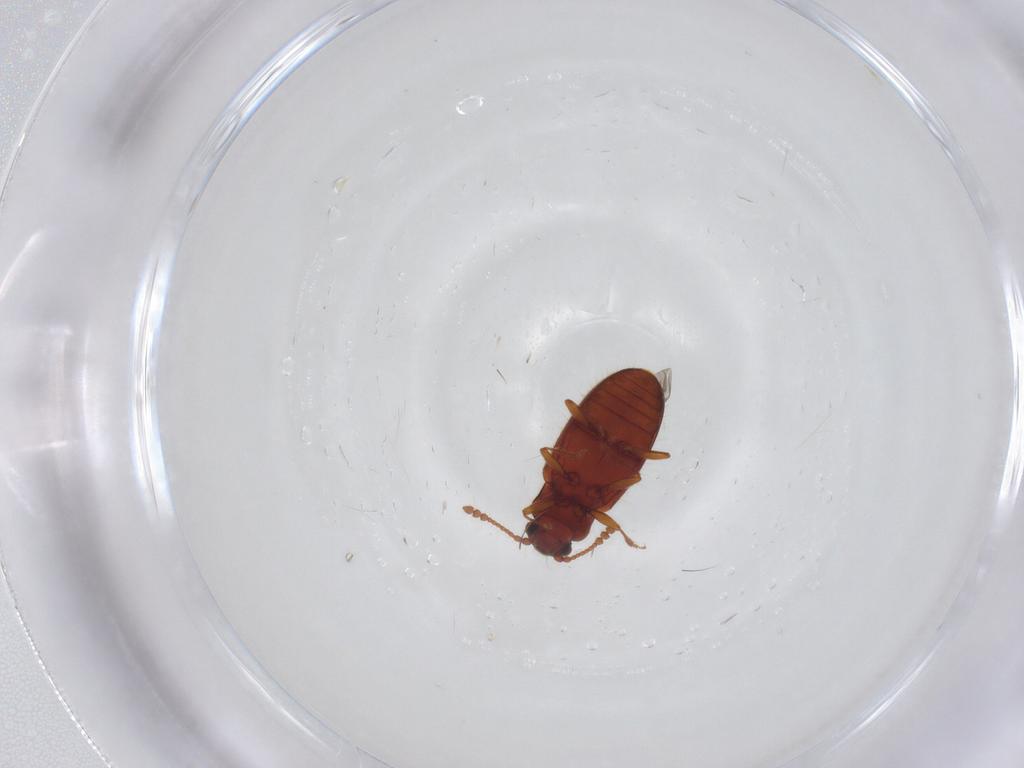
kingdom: Animalia
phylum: Arthropoda
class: Insecta
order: Coleoptera
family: Cryptophagidae
